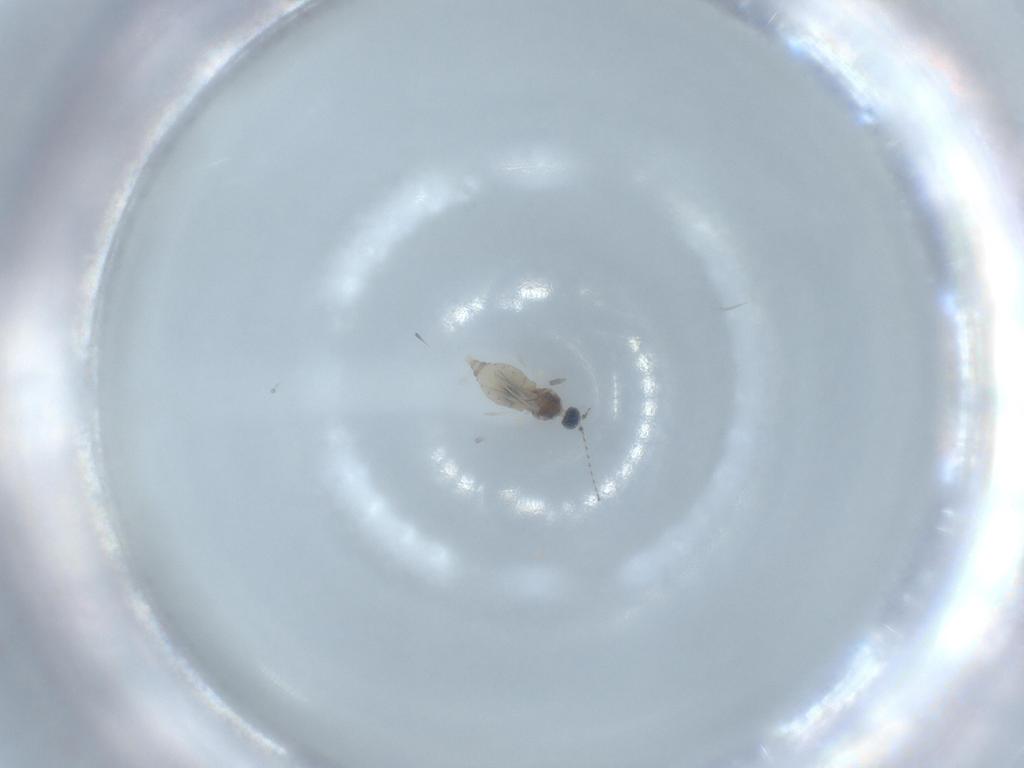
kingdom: Animalia
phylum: Arthropoda
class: Insecta
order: Diptera
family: Cecidomyiidae
